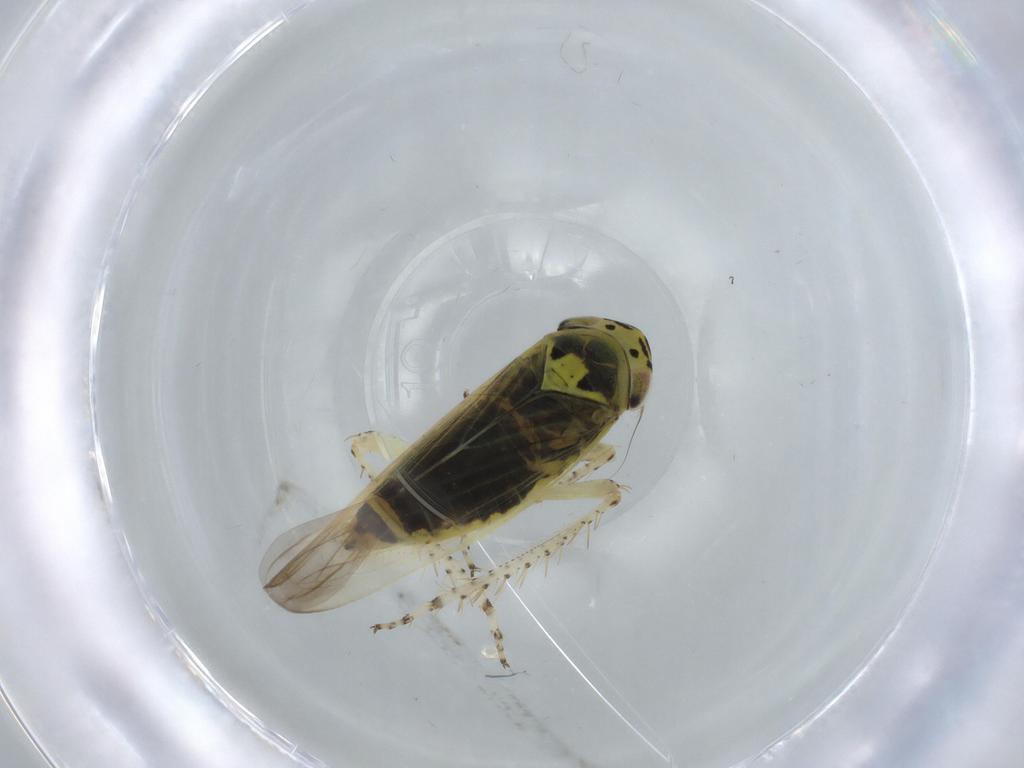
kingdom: Animalia
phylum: Arthropoda
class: Insecta
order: Hemiptera
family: Cicadellidae
